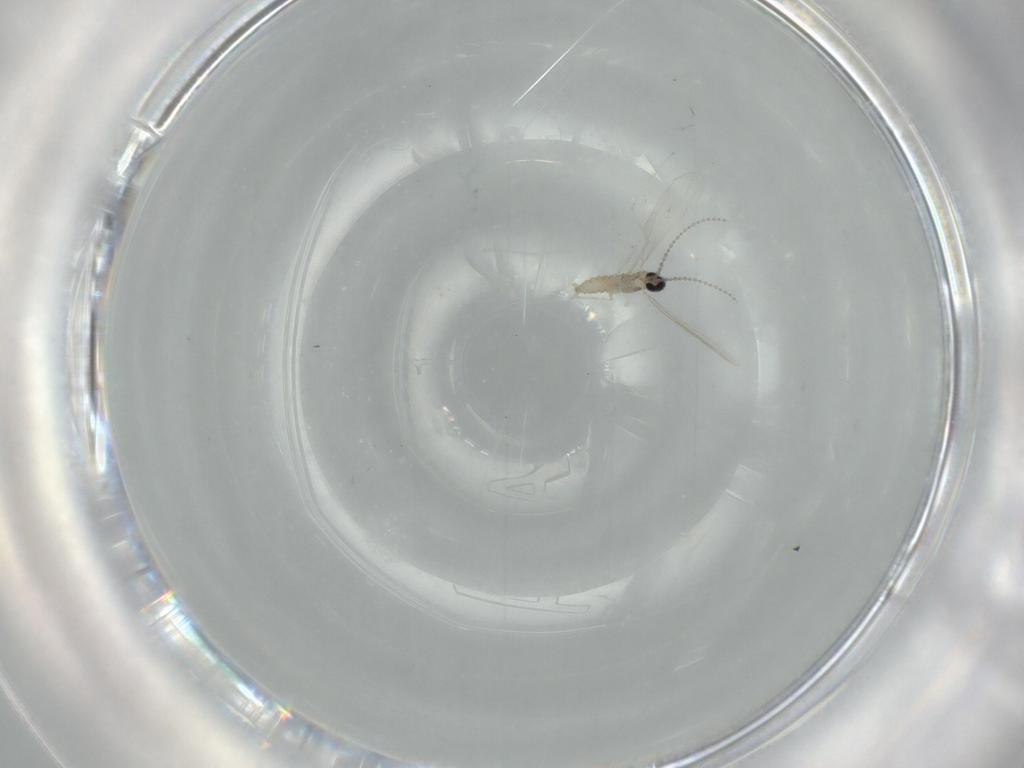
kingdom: Animalia
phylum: Arthropoda
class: Insecta
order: Diptera
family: Cecidomyiidae
